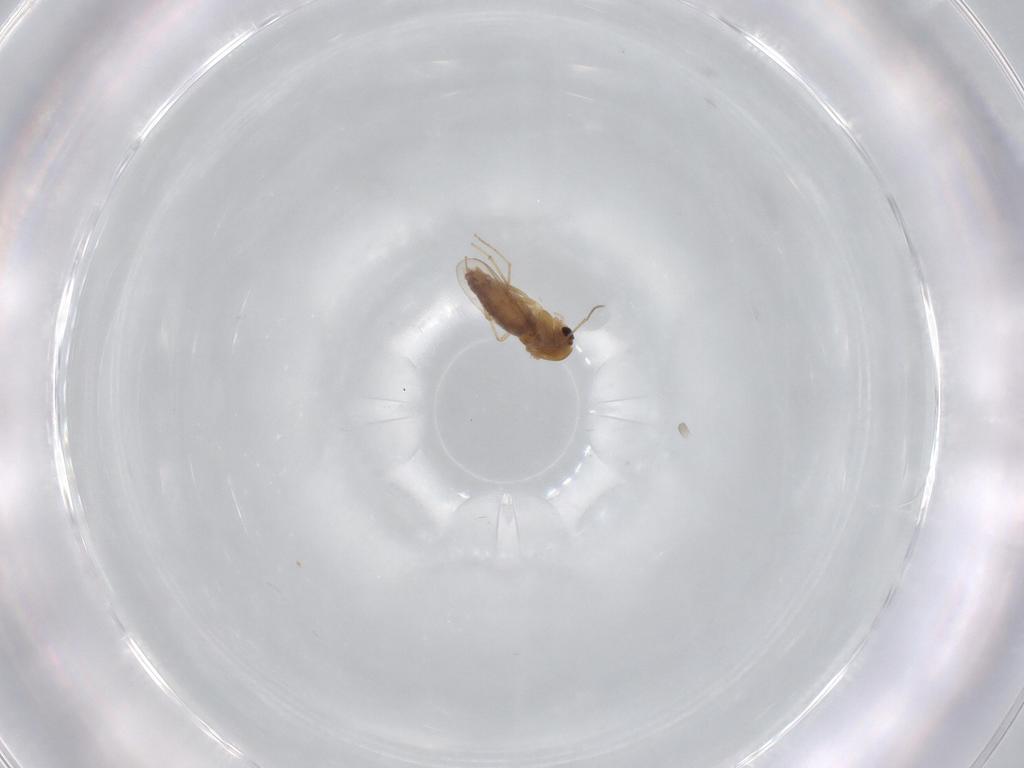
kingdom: Animalia
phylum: Arthropoda
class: Insecta
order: Diptera
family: Chironomidae
